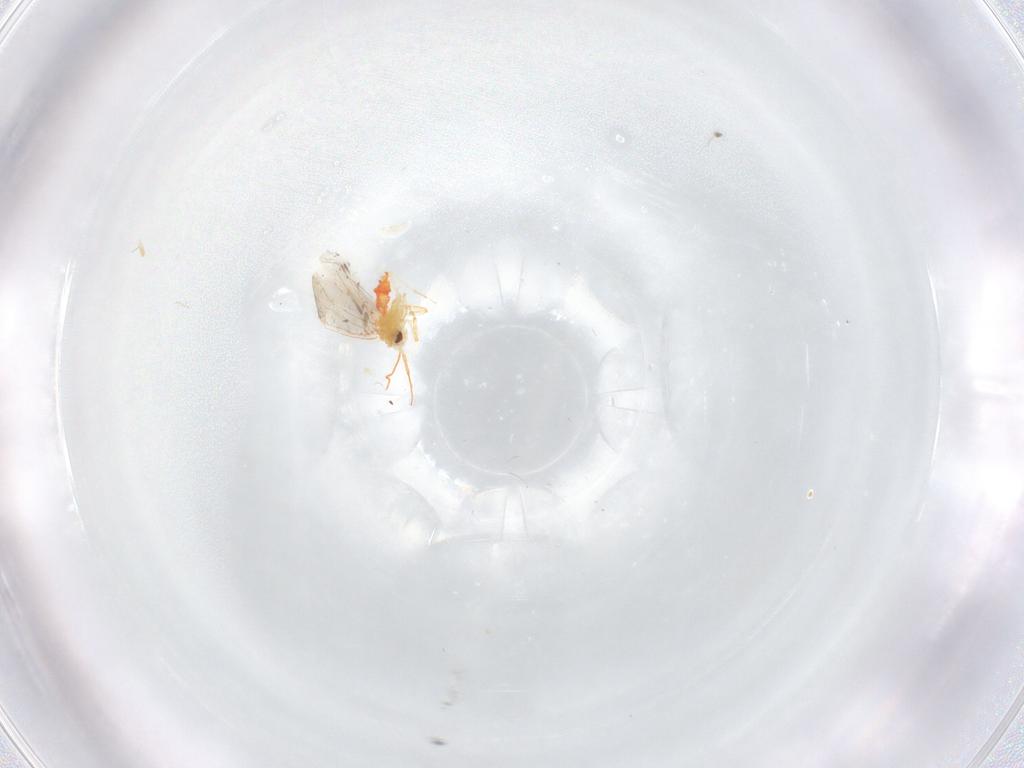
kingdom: Animalia
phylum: Arthropoda
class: Insecta
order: Hemiptera
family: Aleyrodidae
